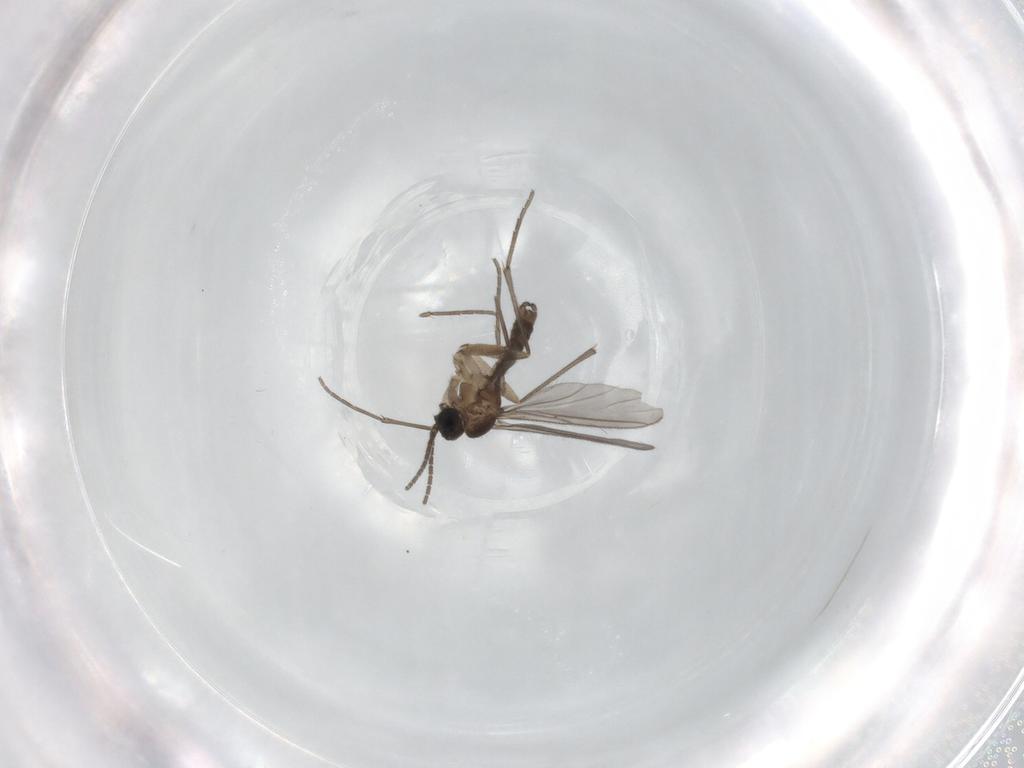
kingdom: Animalia
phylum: Arthropoda
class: Insecta
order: Diptera
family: Sciaridae
